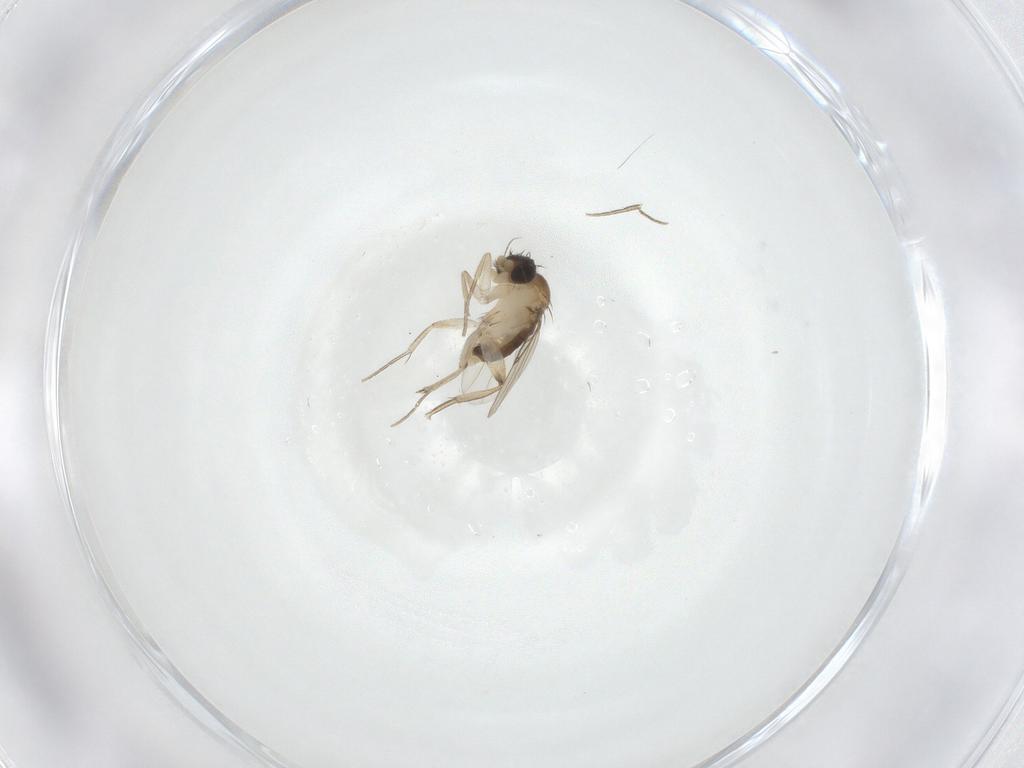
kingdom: Animalia
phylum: Arthropoda
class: Insecta
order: Diptera
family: Phoridae
